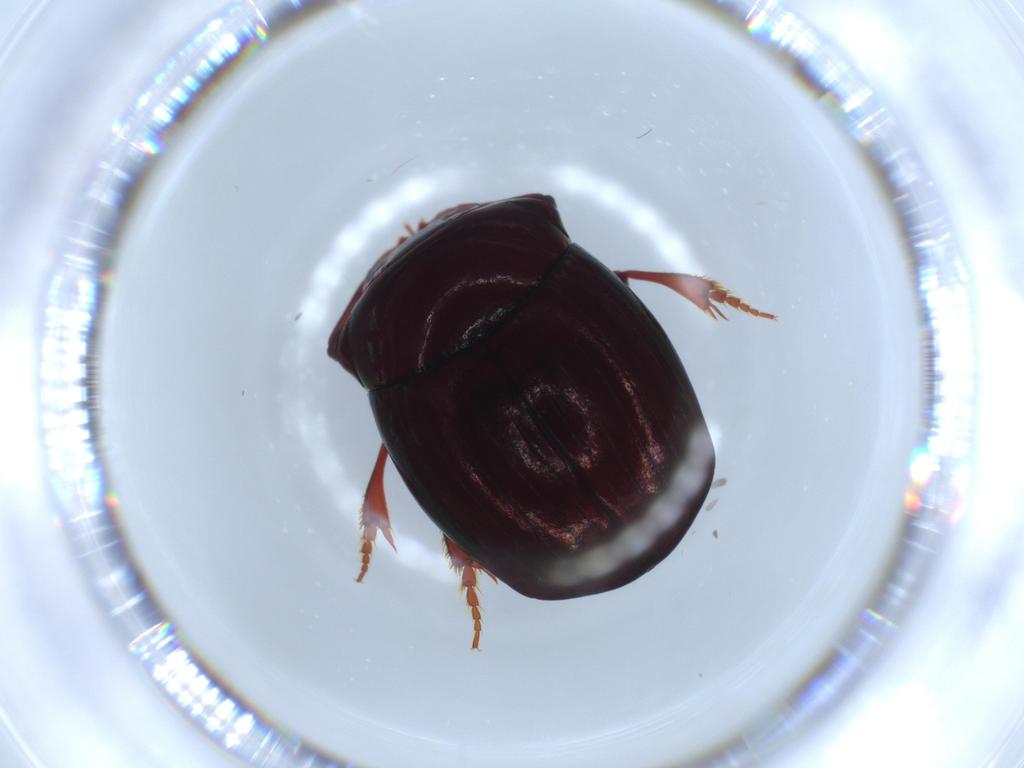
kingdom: Animalia
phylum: Arthropoda
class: Insecta
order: Coleoptera
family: Scarabaeidae
